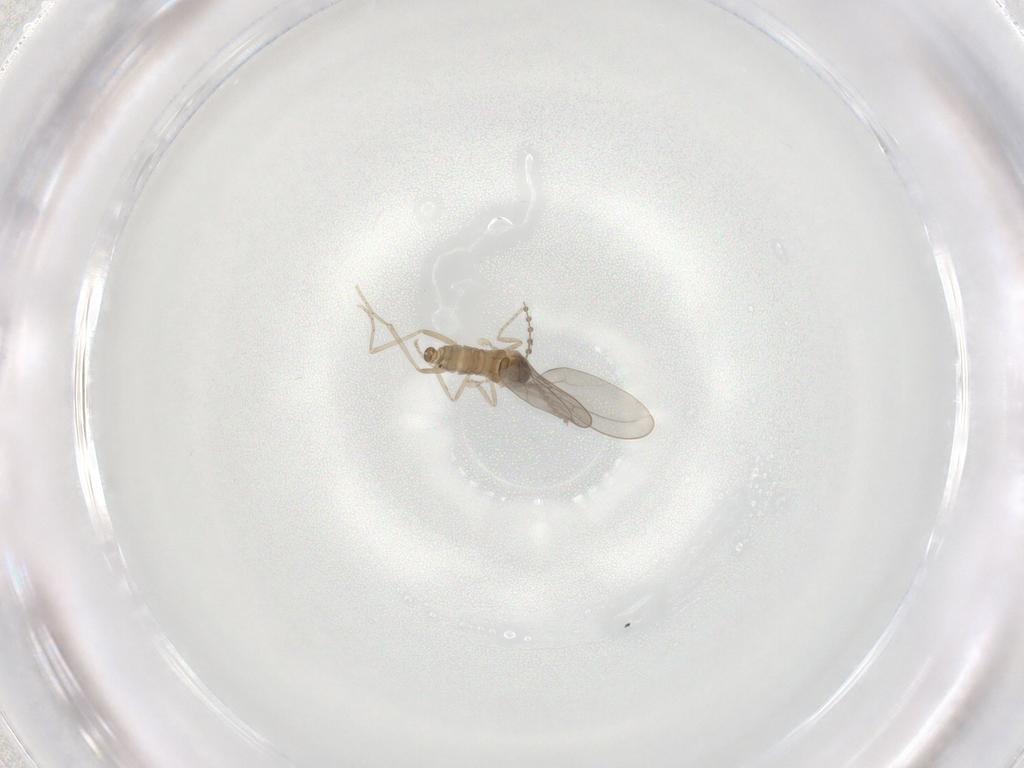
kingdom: Animalia
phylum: Arthropoda
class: Insecta
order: Diptera
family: Cecidomyiidae
